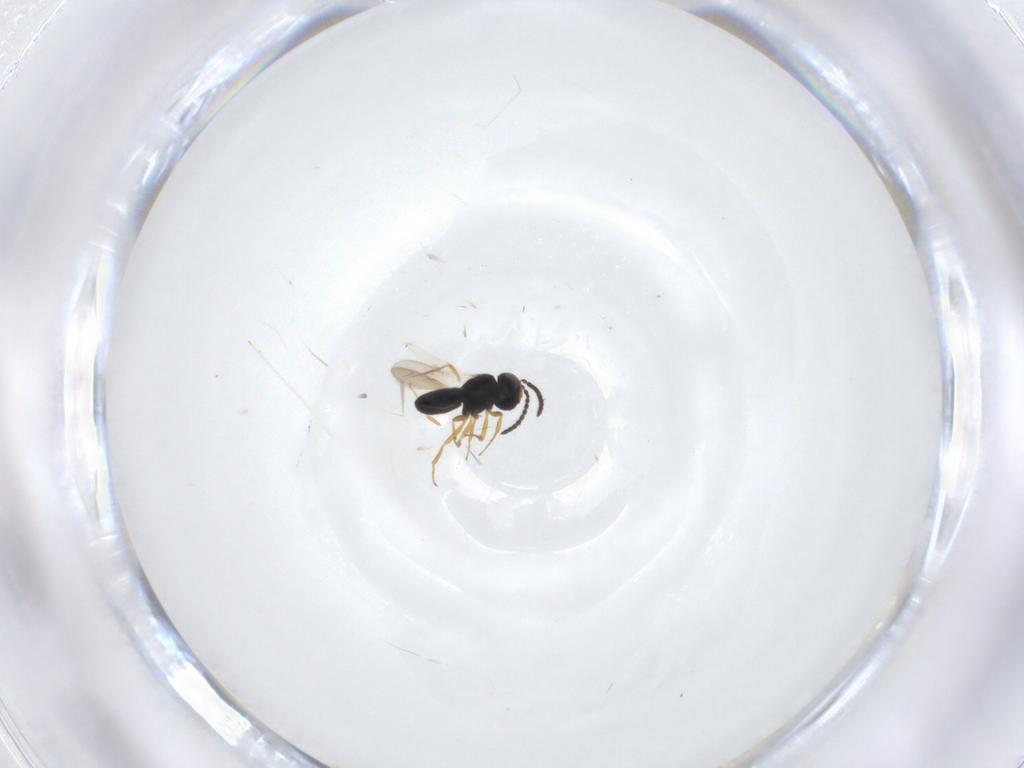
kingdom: Animalia
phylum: Arthropoda
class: Insecta
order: Hymenoptera
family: Scelionidae
